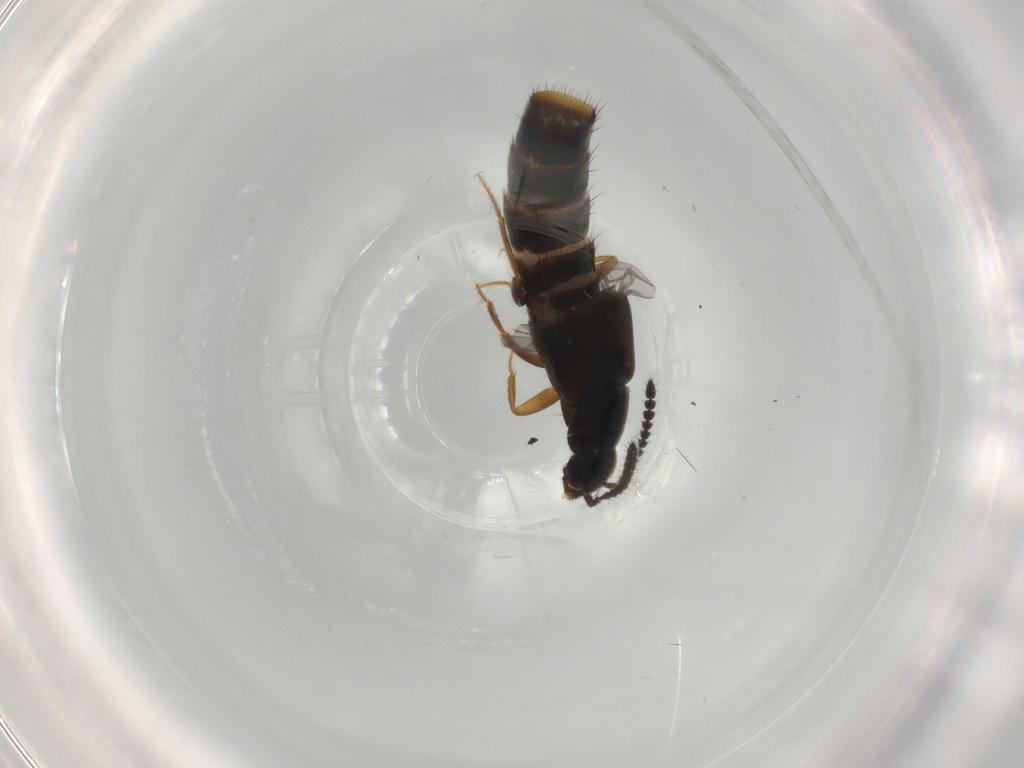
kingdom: Animalia
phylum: Arthropoda
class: Insecta
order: Coleoptera
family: Staphylinidae
